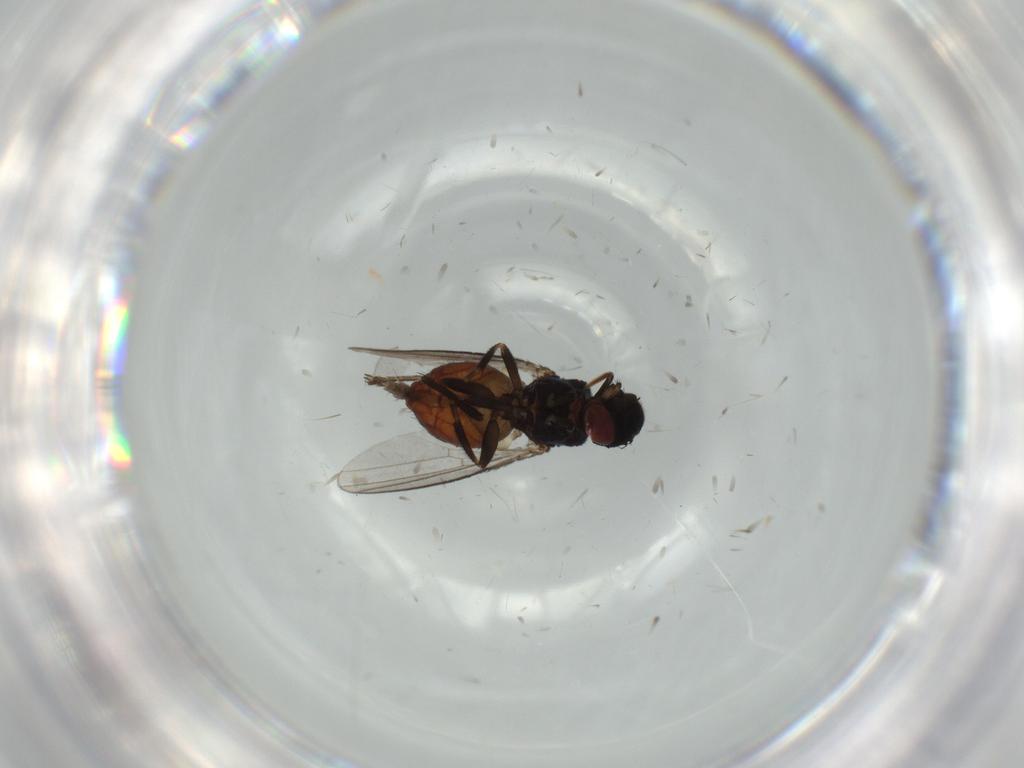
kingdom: Animalia
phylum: Arthropoda
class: Insecta
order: Diptera
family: Milichiidae
